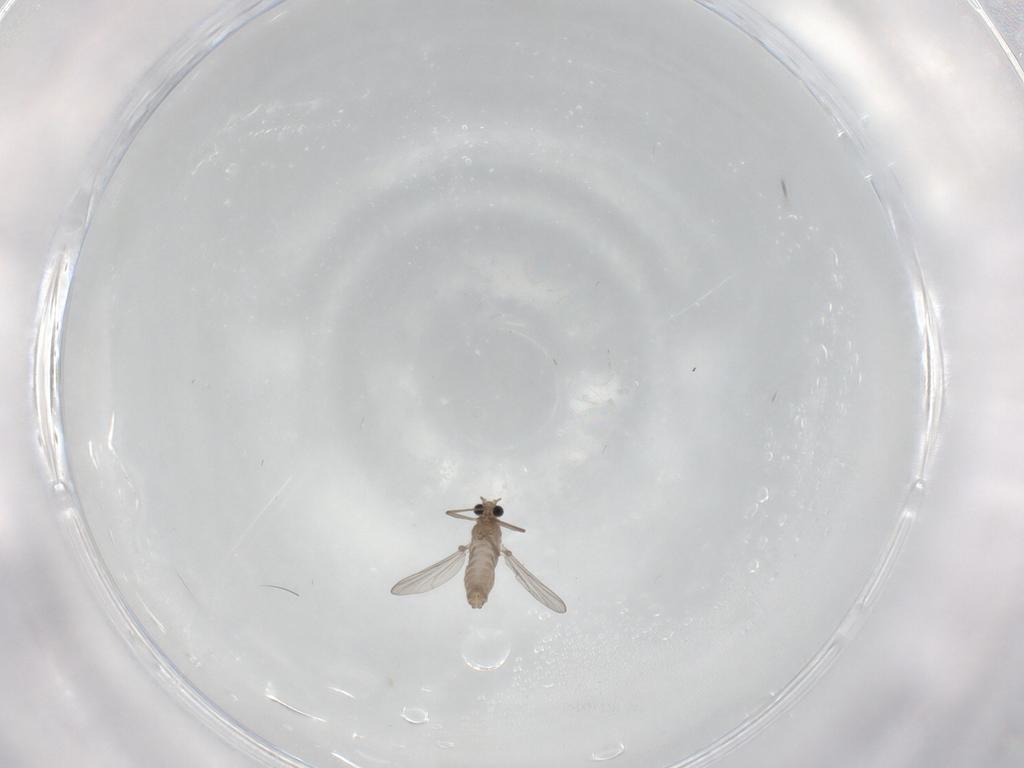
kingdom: Animalia
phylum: Arthropoda
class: Insecta
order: Diptera
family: Chironomidae
